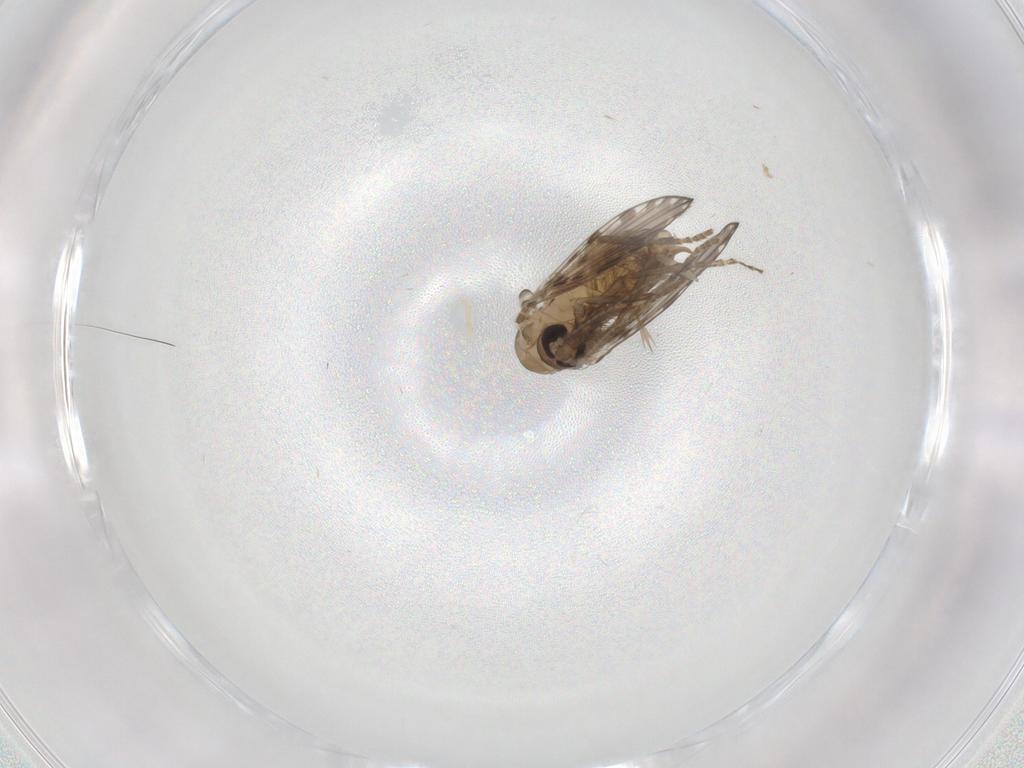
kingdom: Animalia
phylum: Arthropoda
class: Insecta
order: Diptera
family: Psychodidae
